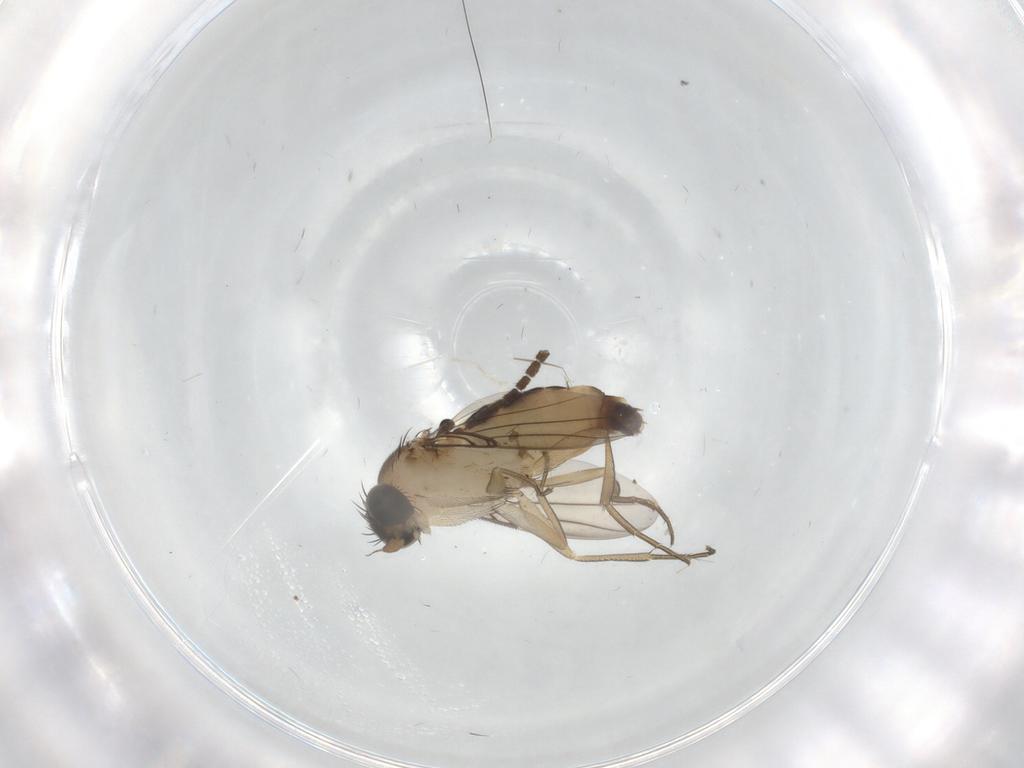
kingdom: Animalia
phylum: Arthropoda
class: Insecta
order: Diptera
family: Phoridae
